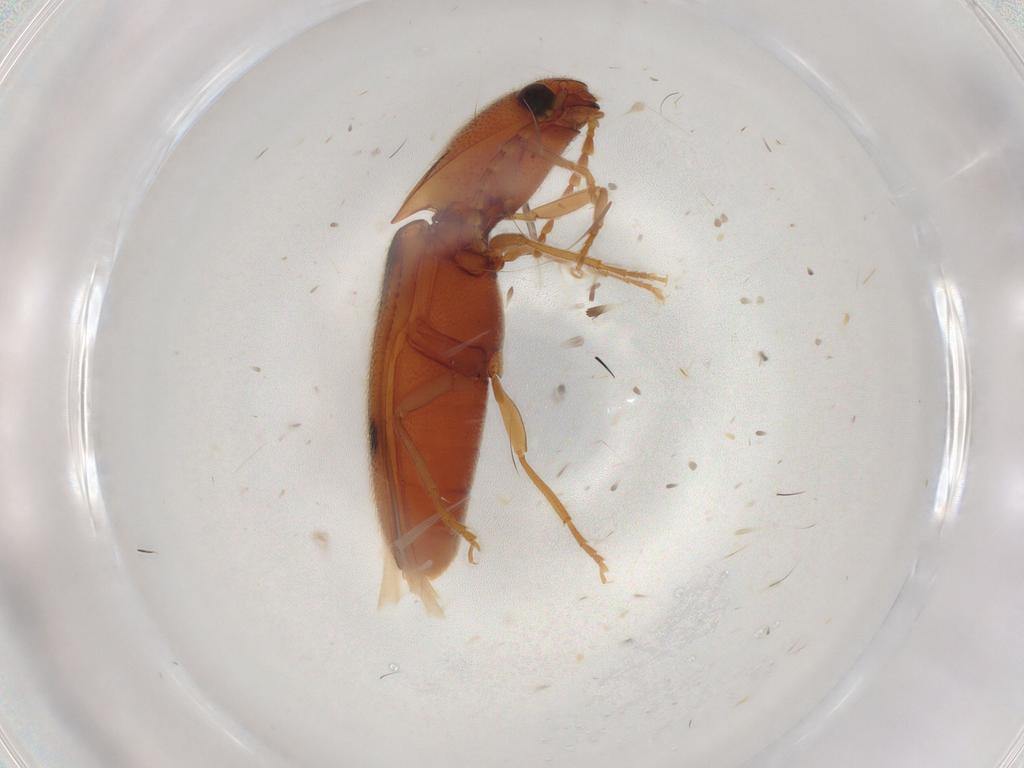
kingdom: Animalia
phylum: Arthropoda
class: Insecta
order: Coleoptera
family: Elateridae
